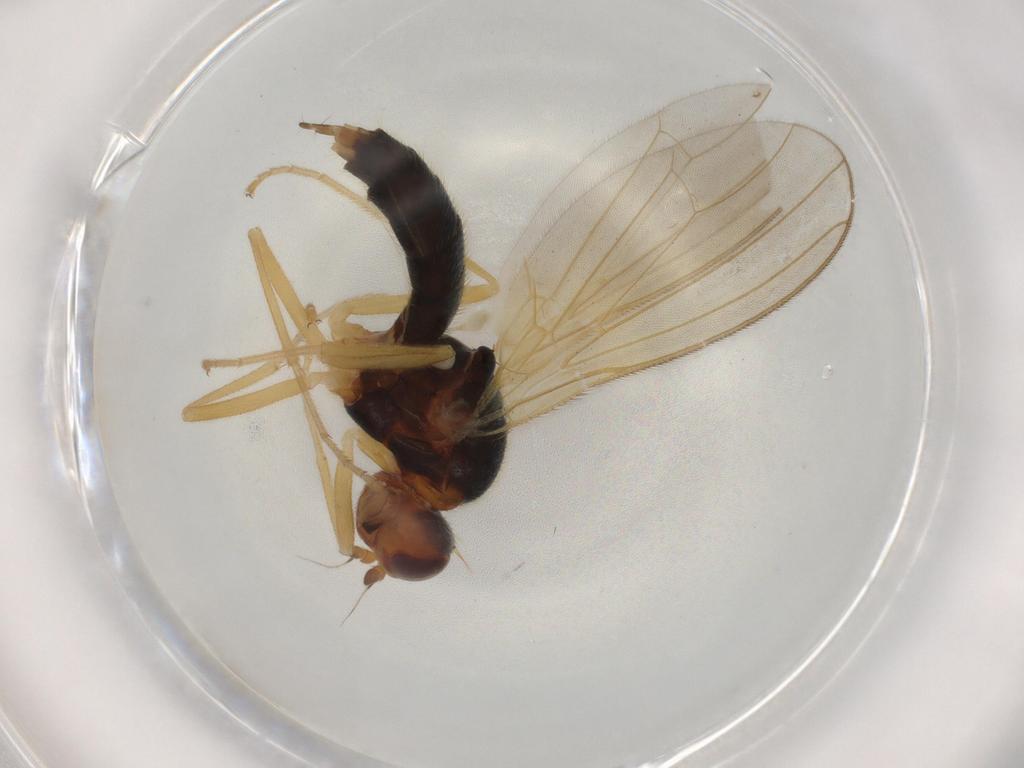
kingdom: Animalia
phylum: Arthropoda
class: Insecta
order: Diptera
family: Psilidae
